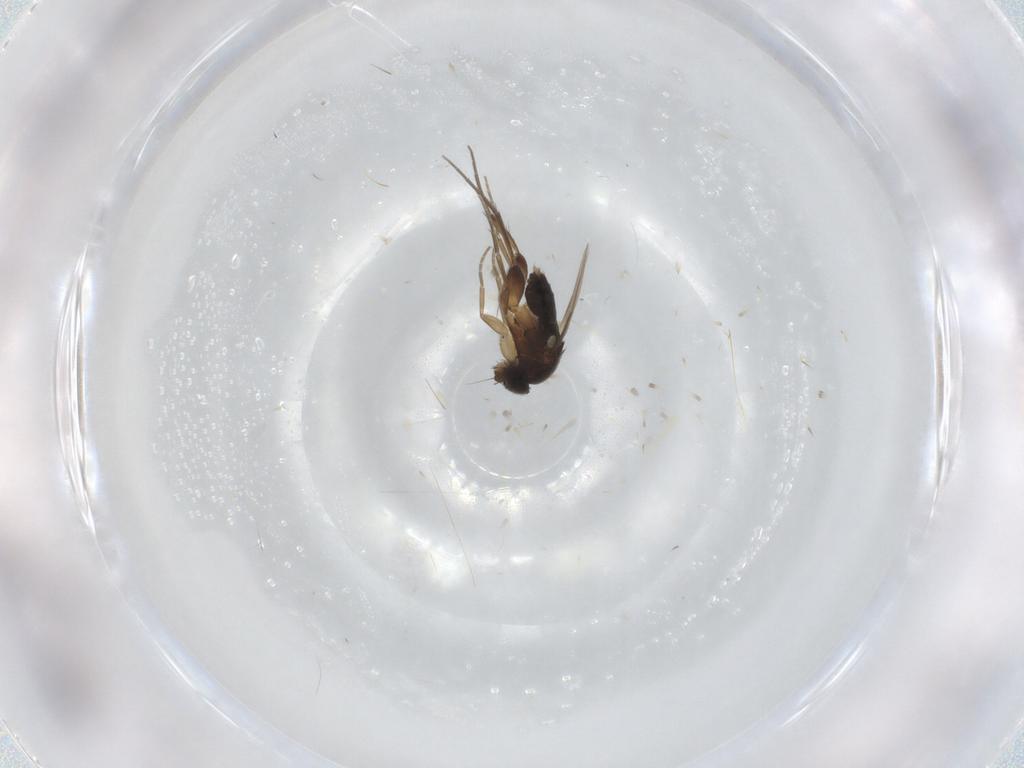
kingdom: Animalia
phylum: Arthropoda
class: Insecta
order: Diptera
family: Phoridae
